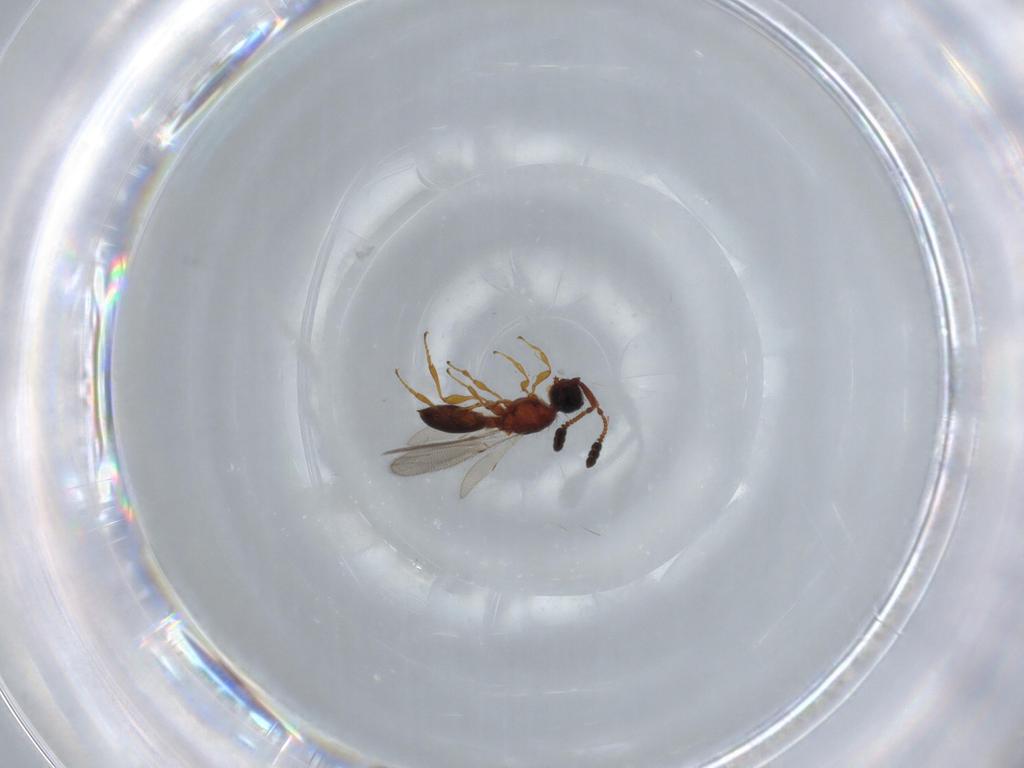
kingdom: Animalia
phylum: Arthropoda
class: Insecta
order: Hymenoptera
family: Diapriidae
